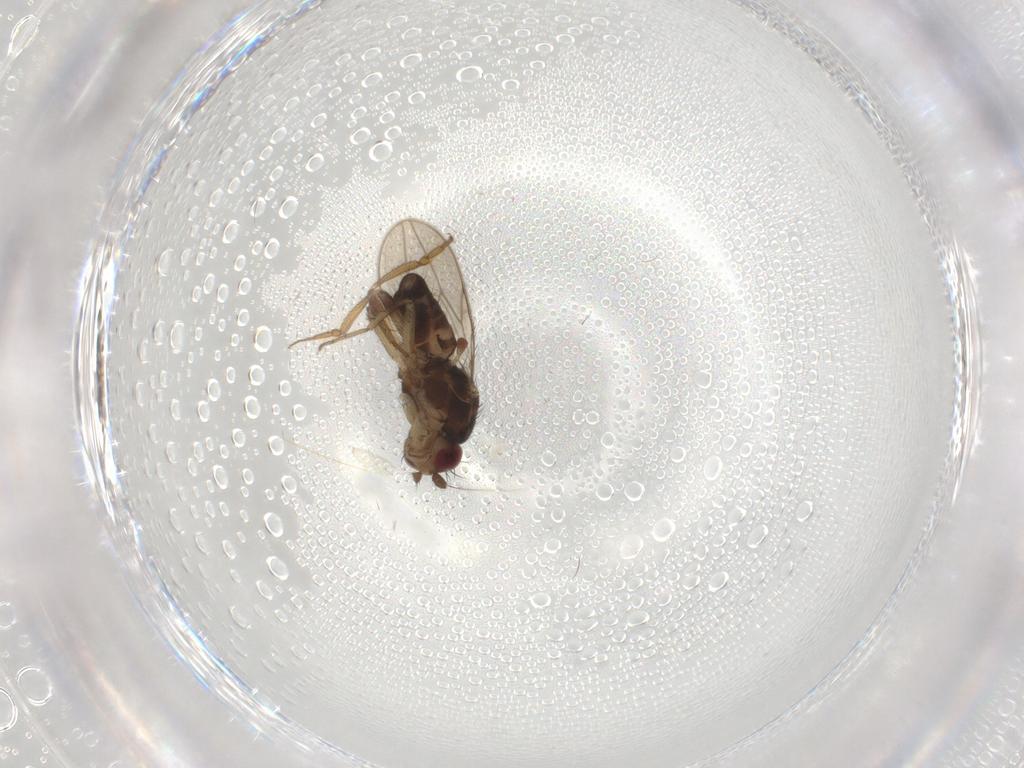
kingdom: Animalia
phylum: Arthropoda
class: Insecta
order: Diptera
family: Sphaeroceridae
